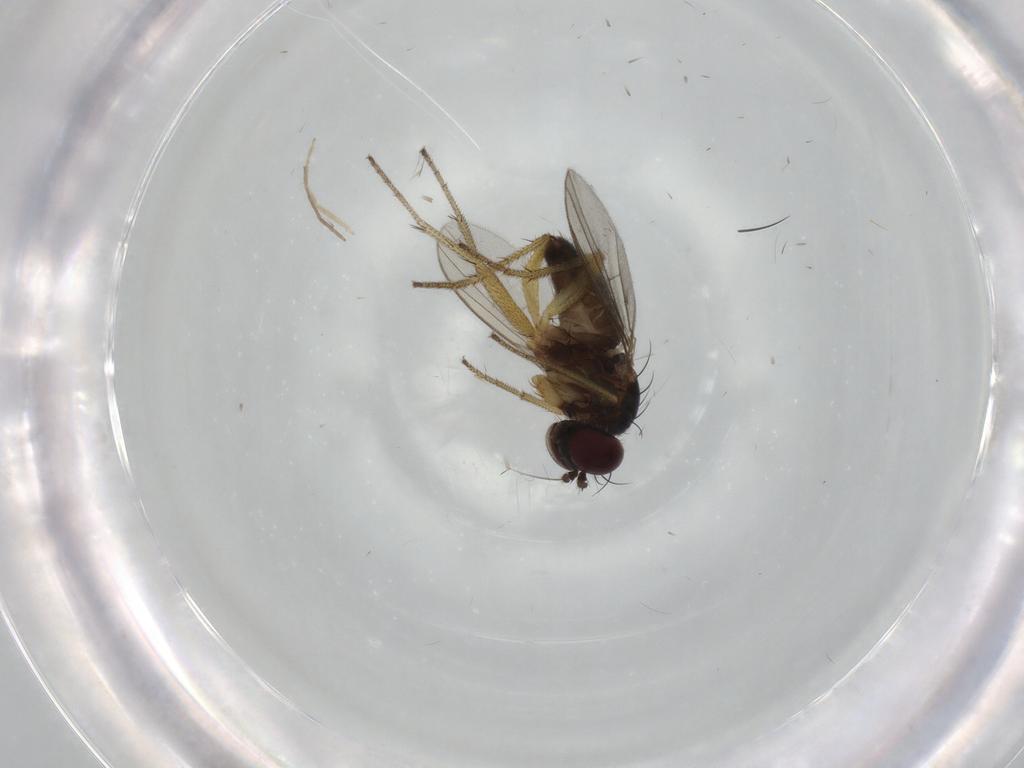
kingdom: Animalia
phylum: Arthropoda
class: Insecta
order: Diptera
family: Dolichopodidae
